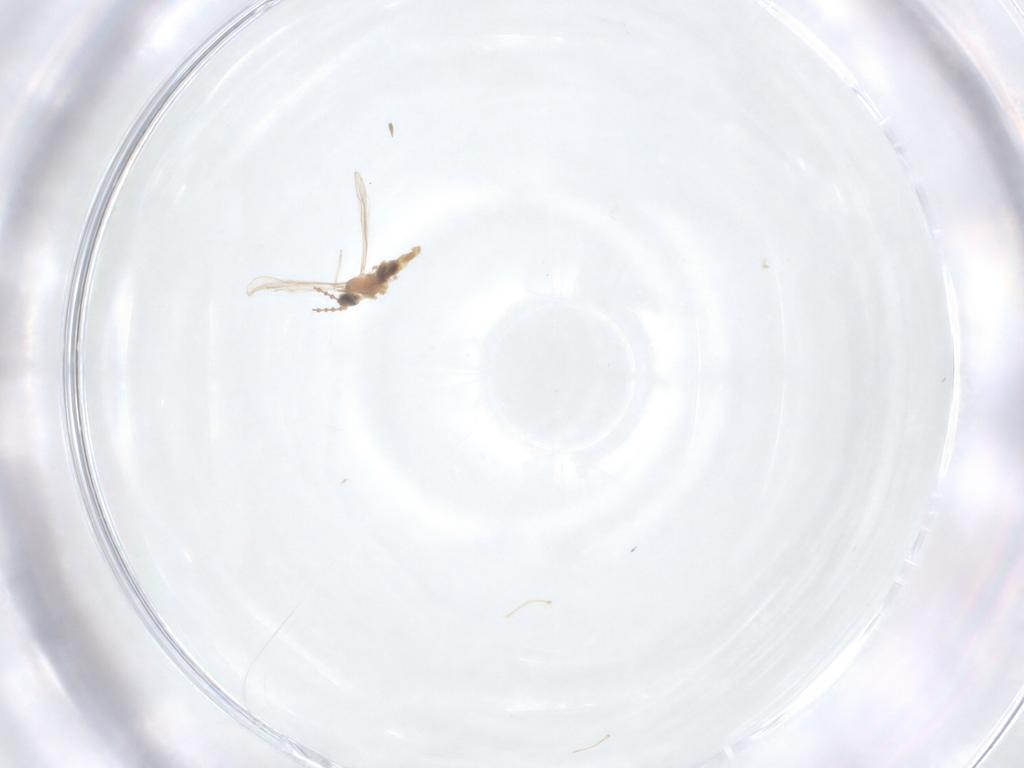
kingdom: Animalia
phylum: Arthropoda
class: Insecta
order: Diptera
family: Cecidomyiidae
